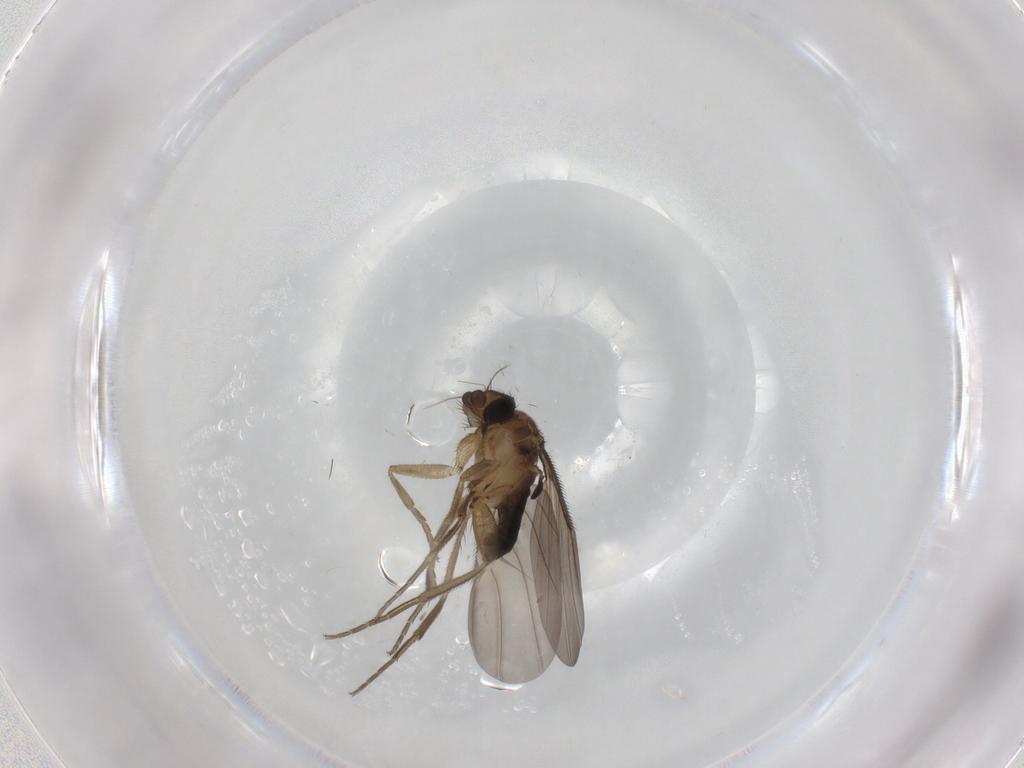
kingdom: Animalia
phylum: Arthropoda
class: Insecta
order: Diptera
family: Phoridae
